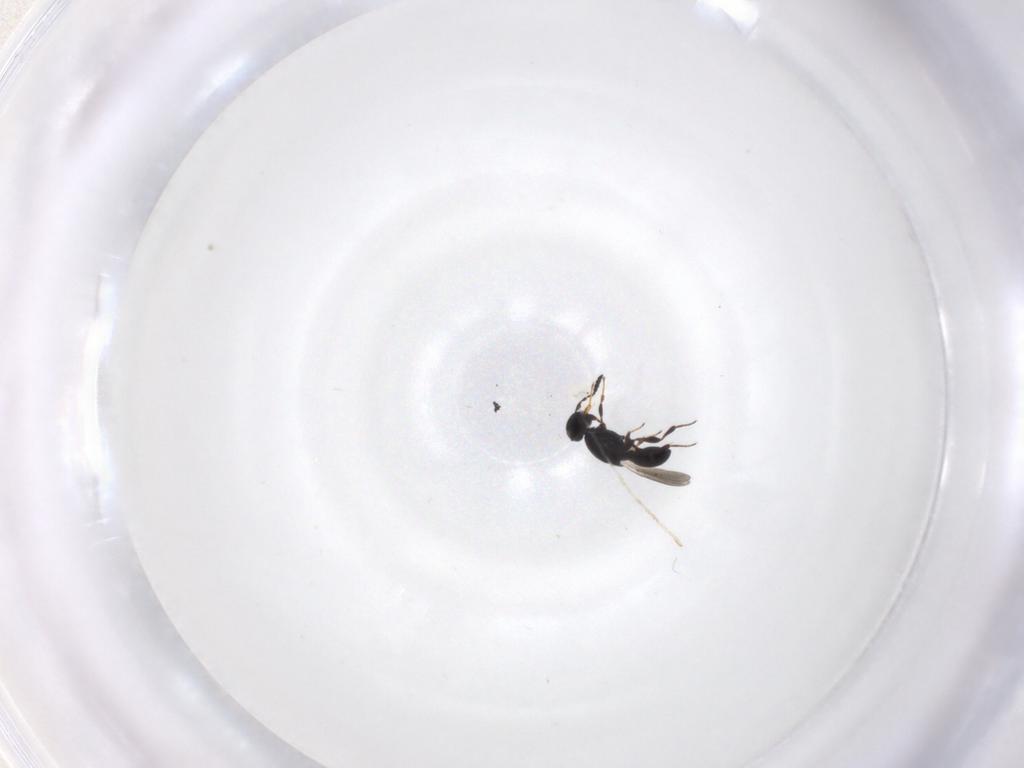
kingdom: Animalia
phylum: Arthropoda
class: Insecta
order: Hymenoptera
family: Platygastridae
